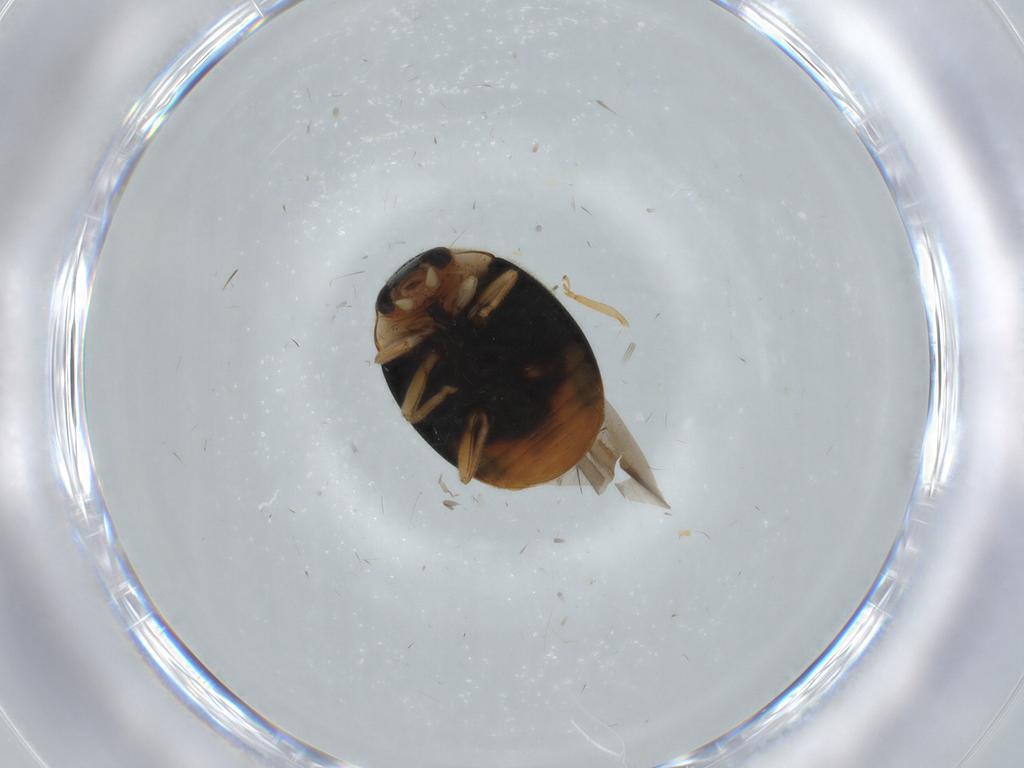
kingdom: Animalia
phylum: Arthropoda
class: Insecta
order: Coleoptera
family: Coccinellidae
